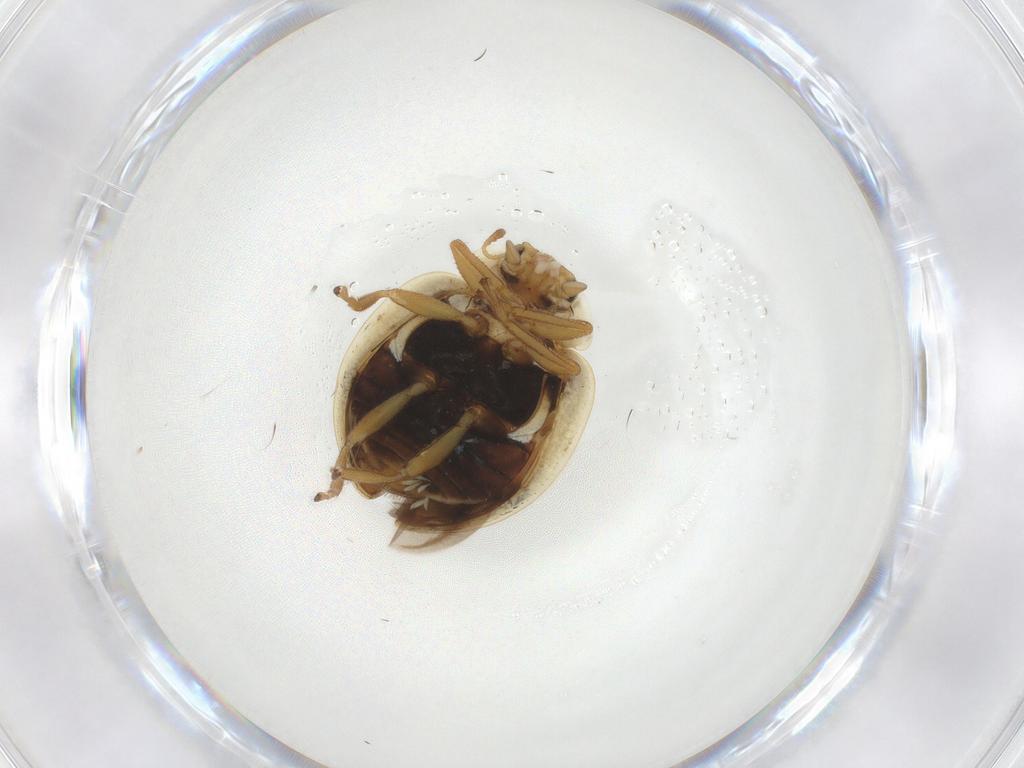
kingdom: Animalia
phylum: Arthropoda
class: Insecta
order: Coleoptera
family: Coccinellidae
